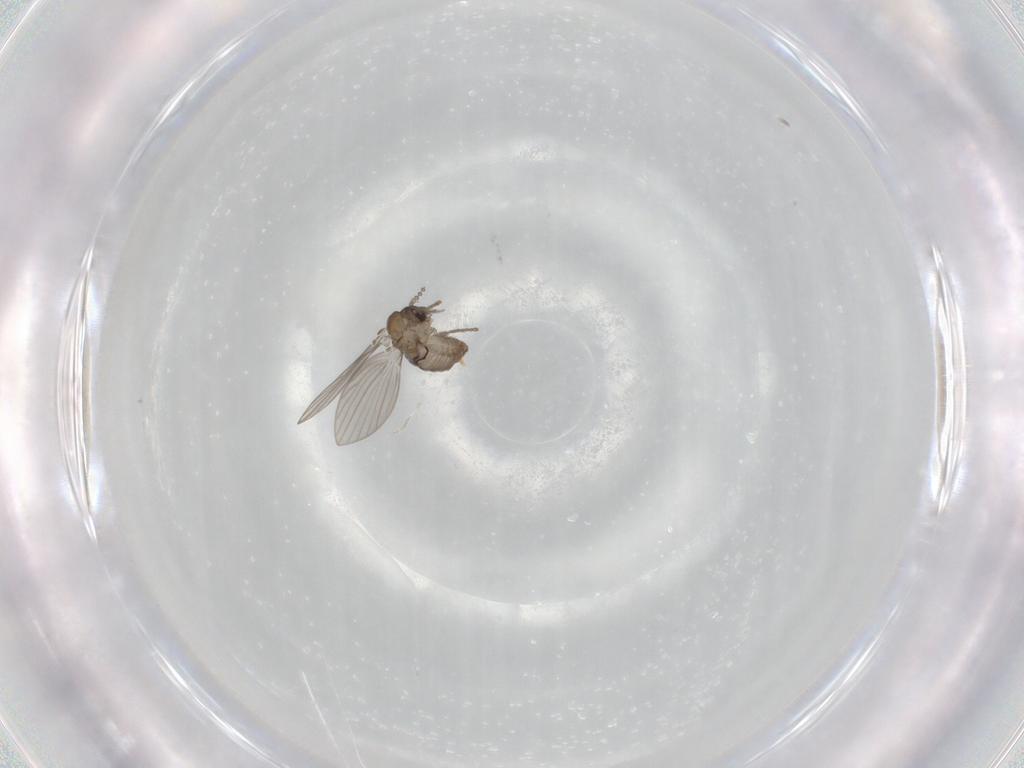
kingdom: Animalia
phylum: Arthropoda
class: Insecta
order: Diptera
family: Psychodidae
